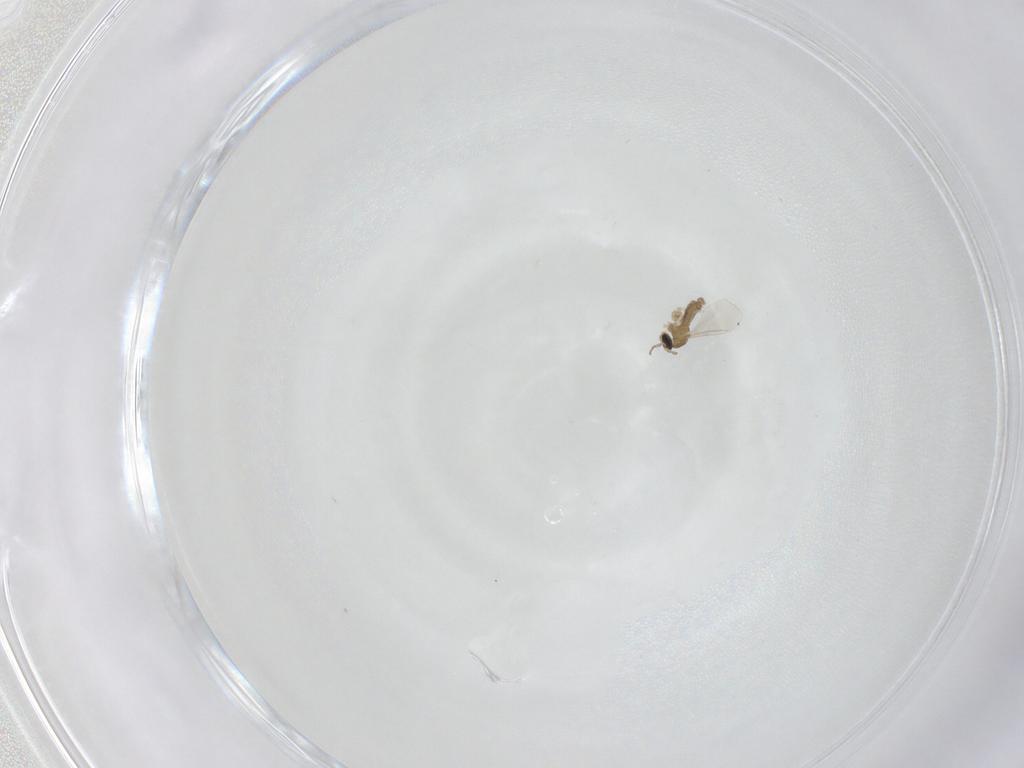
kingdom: Animalia
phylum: Arthropoda
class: Insecta
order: Diptera
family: Cecidomyiidae
